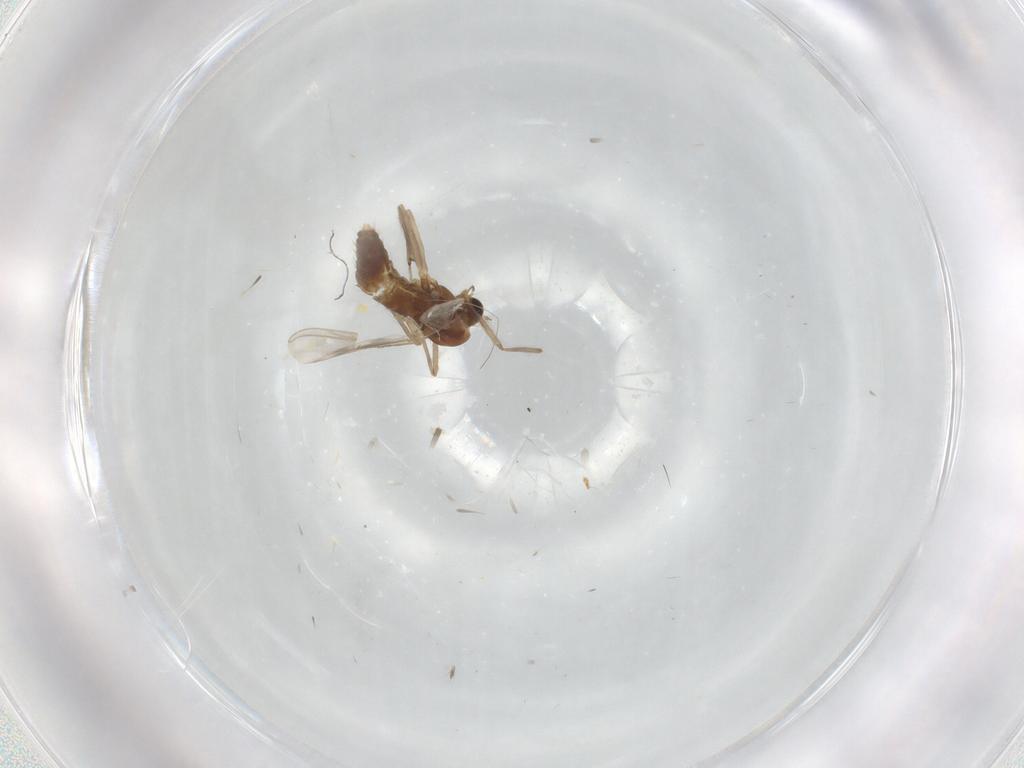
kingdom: Animalia
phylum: Arthropoda
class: Insecta
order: Diptera
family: Chironomidae
